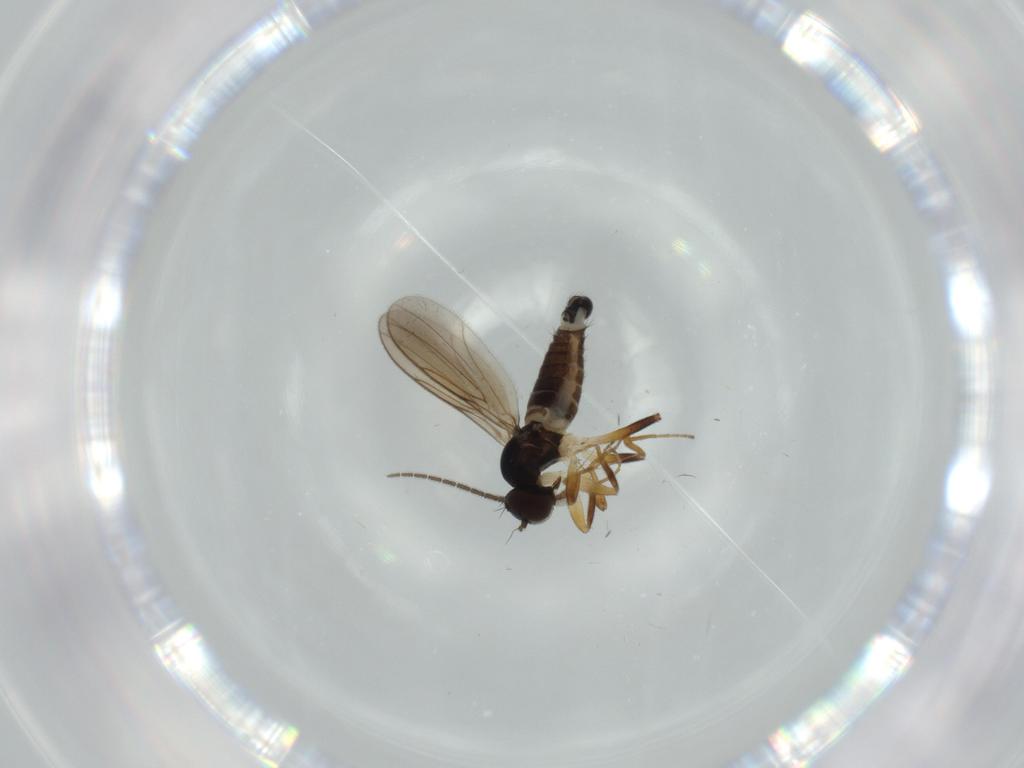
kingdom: Animalia
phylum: Arthropoda
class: Insecta
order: Diptera
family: Hybotidae
